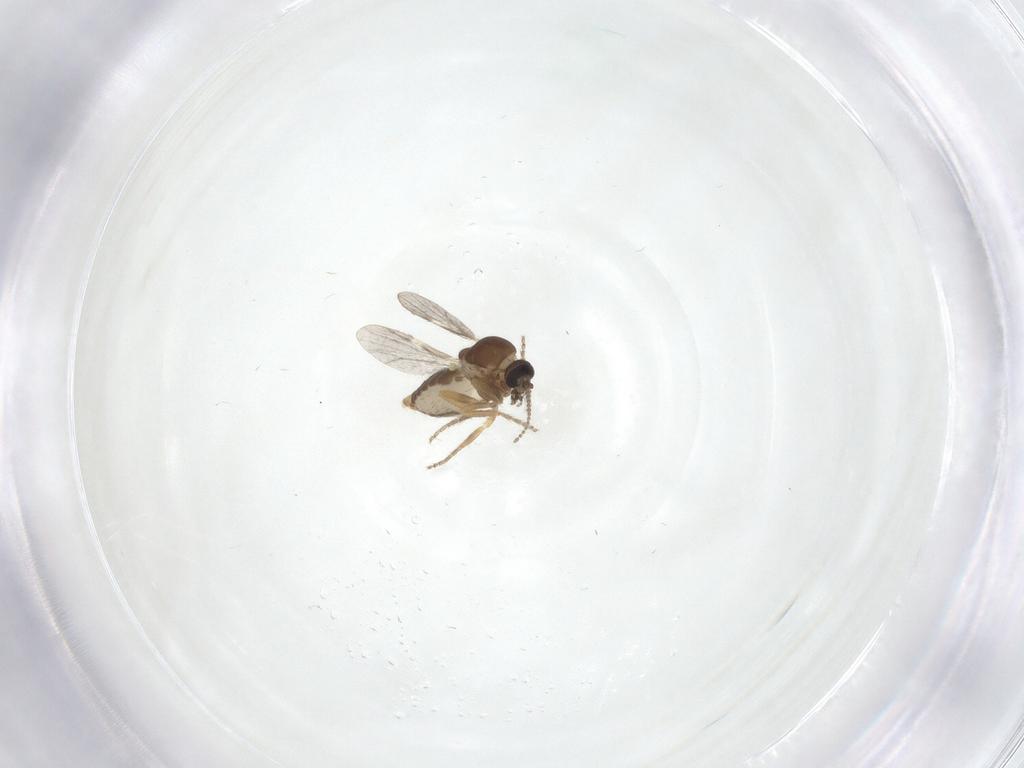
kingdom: Animalia
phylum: Arthropoda
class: Insecta
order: Diptera
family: Ceratopogonidae
